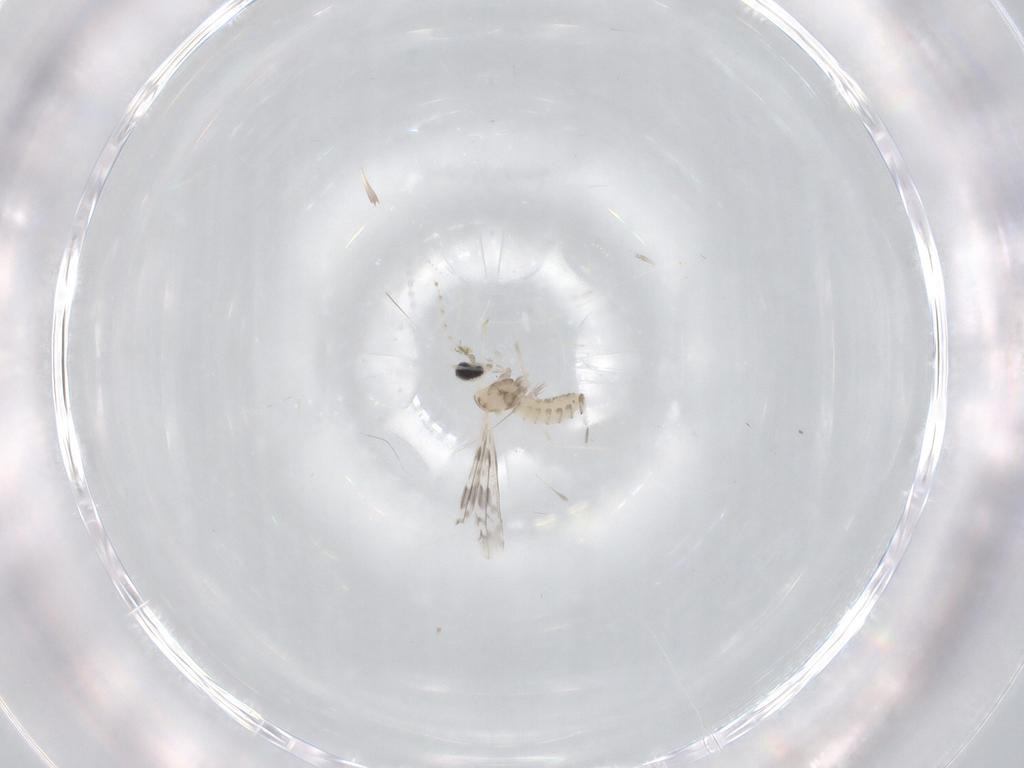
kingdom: Animalia
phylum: Arthropoda
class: Insecta
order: Diptera
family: Cecidomyiidae
